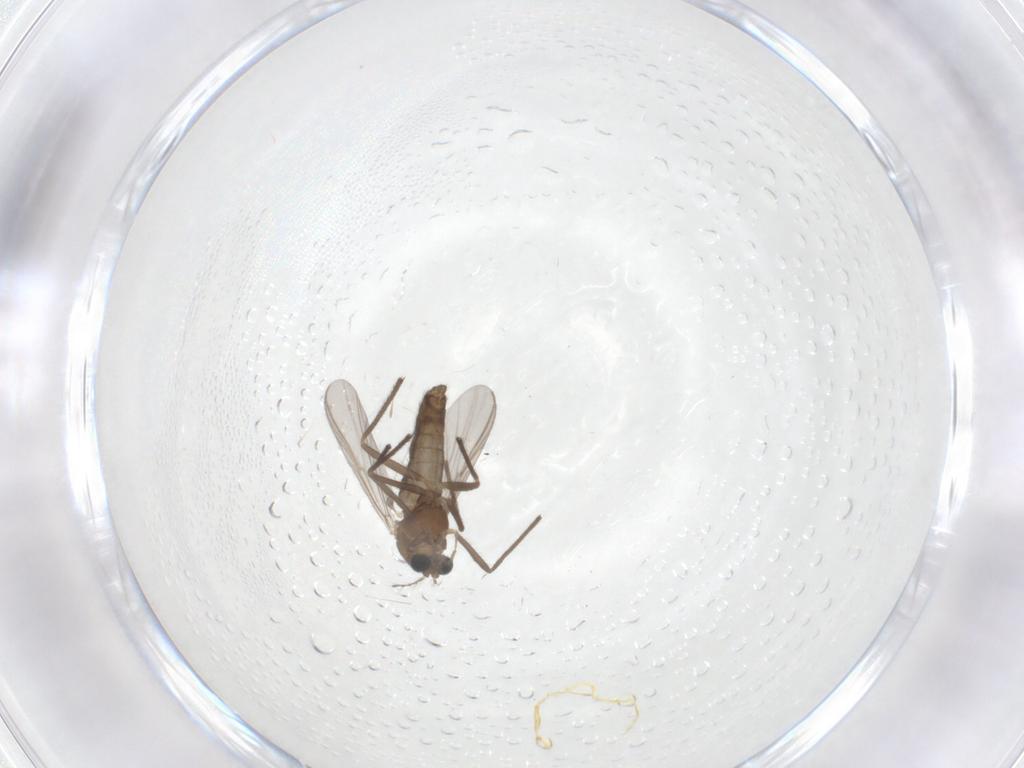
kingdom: Animalia
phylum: Arthropoda
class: Insecta
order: Diptera
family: Chironomidae
